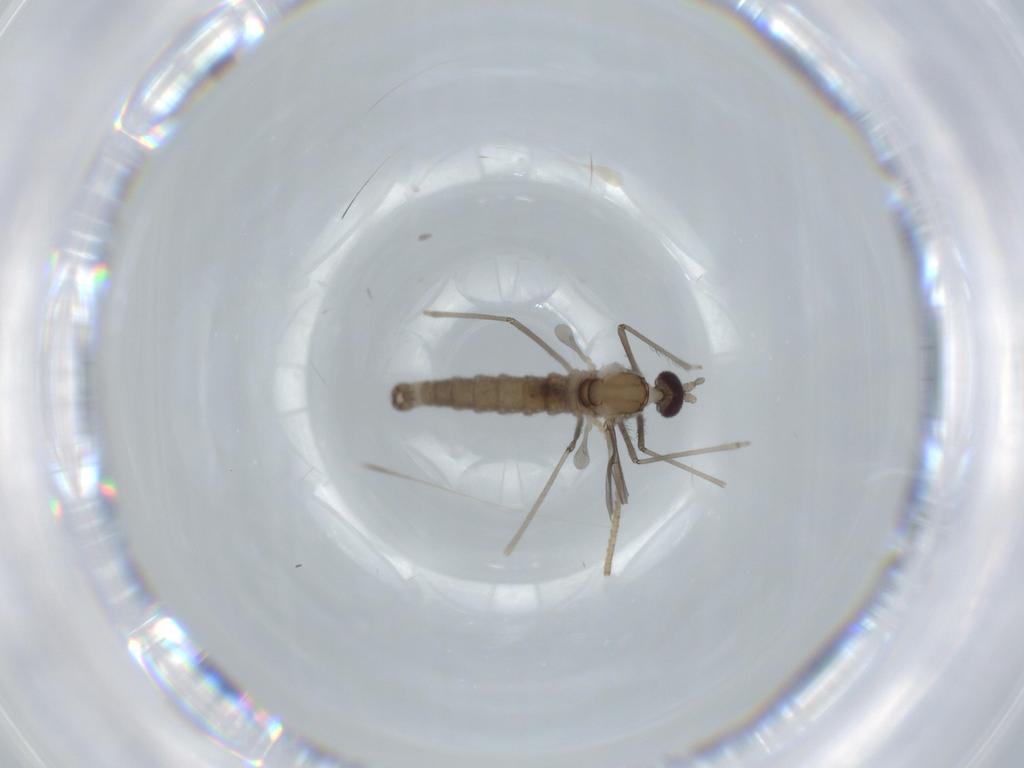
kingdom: Animalia
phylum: Arthropoda
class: Insecta
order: Diptera
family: Cecidomyiidae
